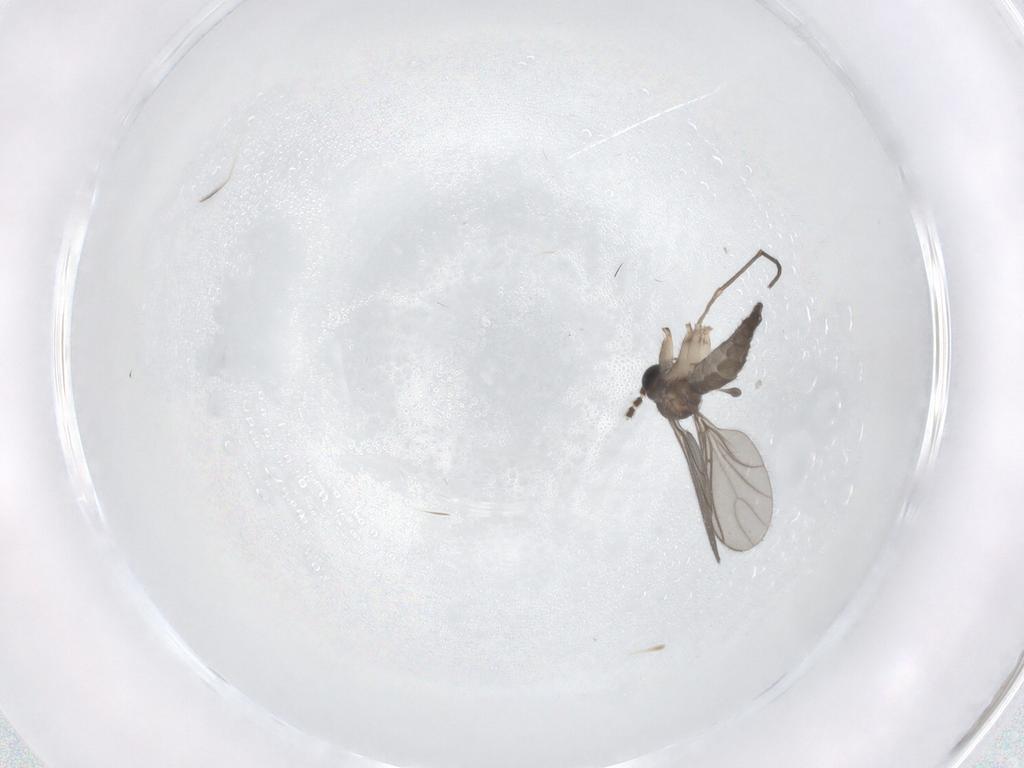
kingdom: Animalia
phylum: Arthropoda
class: Insecta
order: Diptera
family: Sciaridae
